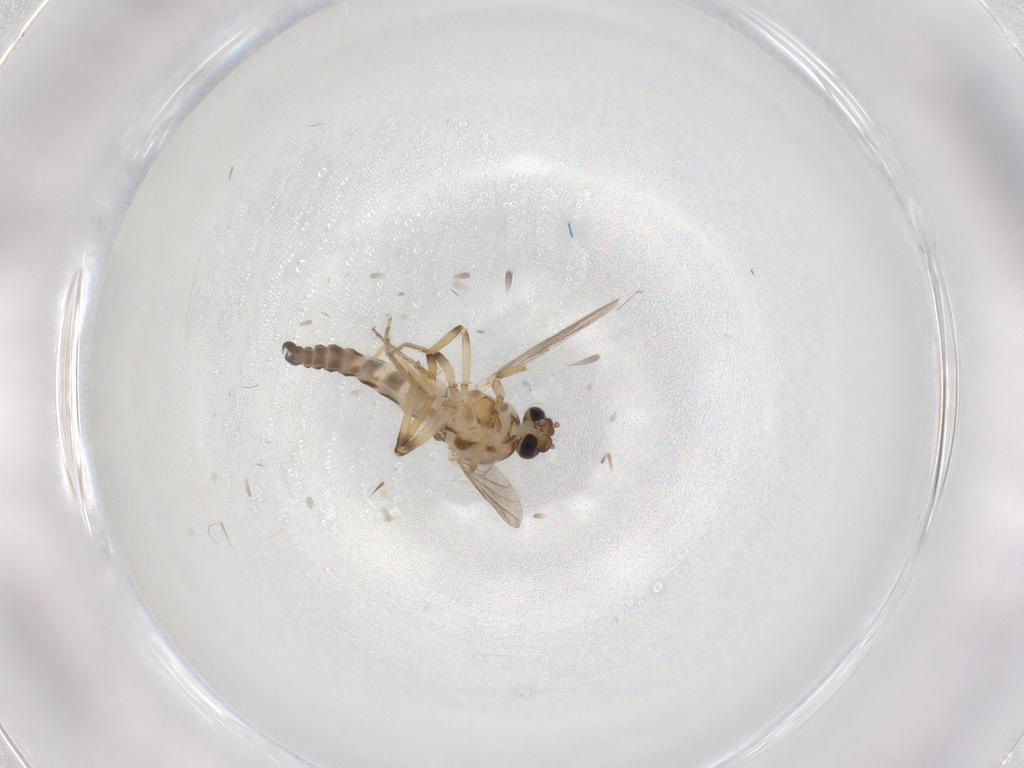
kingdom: Animalia
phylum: Arthropoda
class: Insecta
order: Diptera
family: Ceratopogonidae
